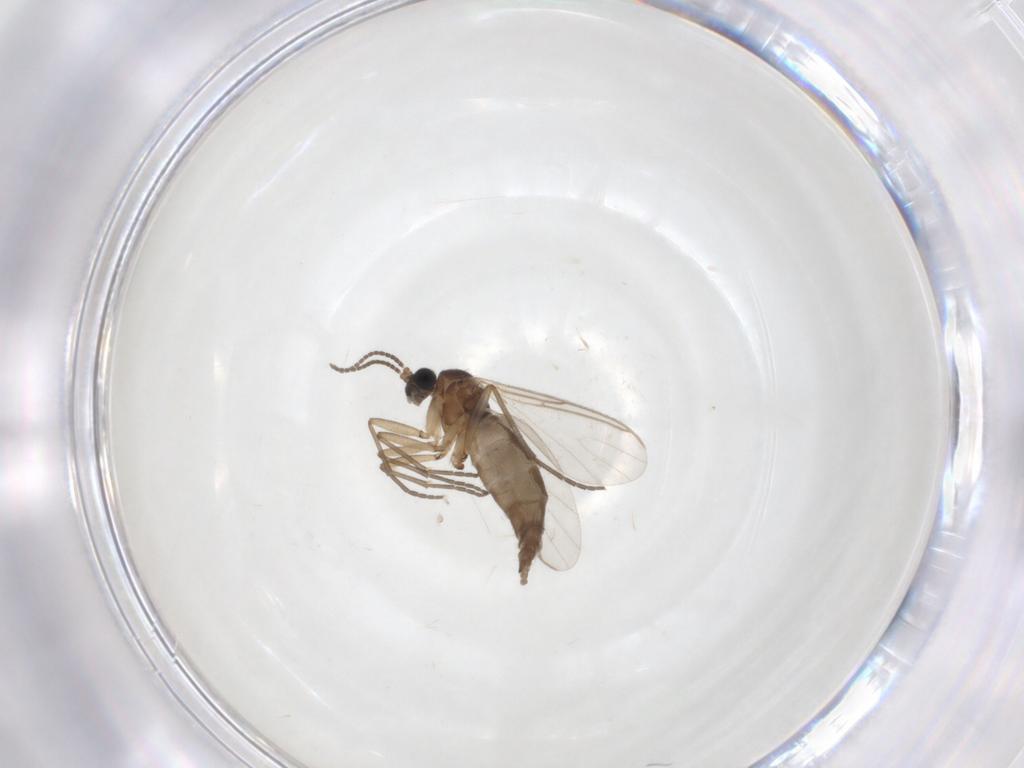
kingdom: Animalia
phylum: Arthropoda
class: Insecta
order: Diptera
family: Sciaridae
